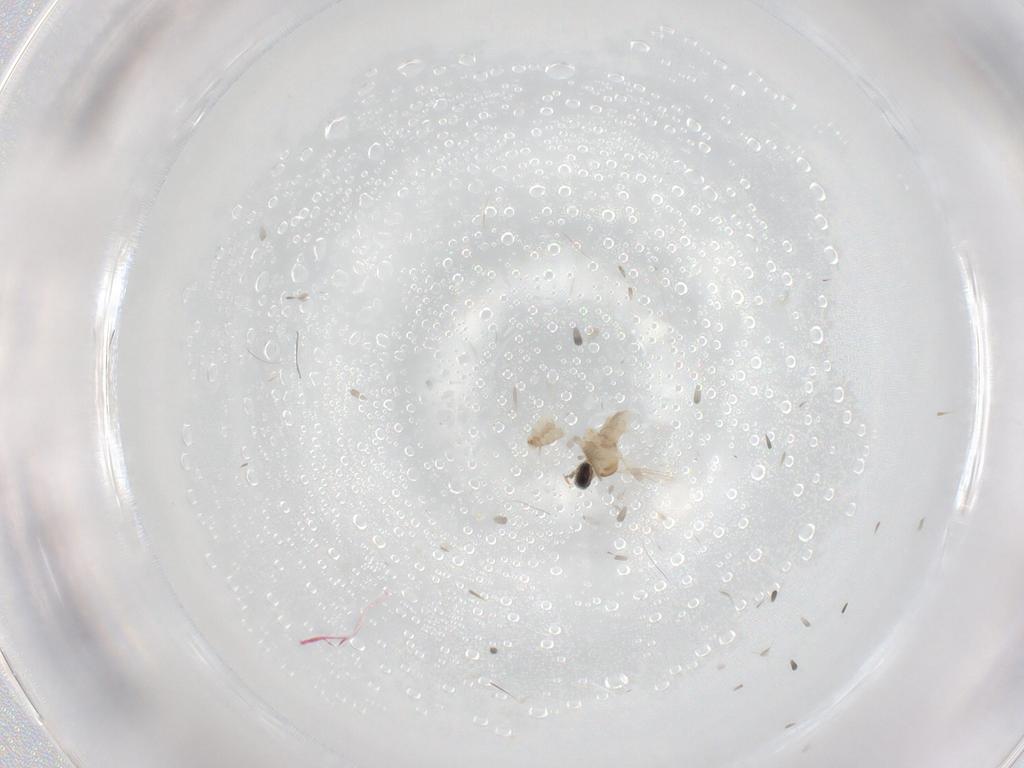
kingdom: Animalia
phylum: Arthropoda
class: Insecta
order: Diptera
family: Cecidomyiidae
